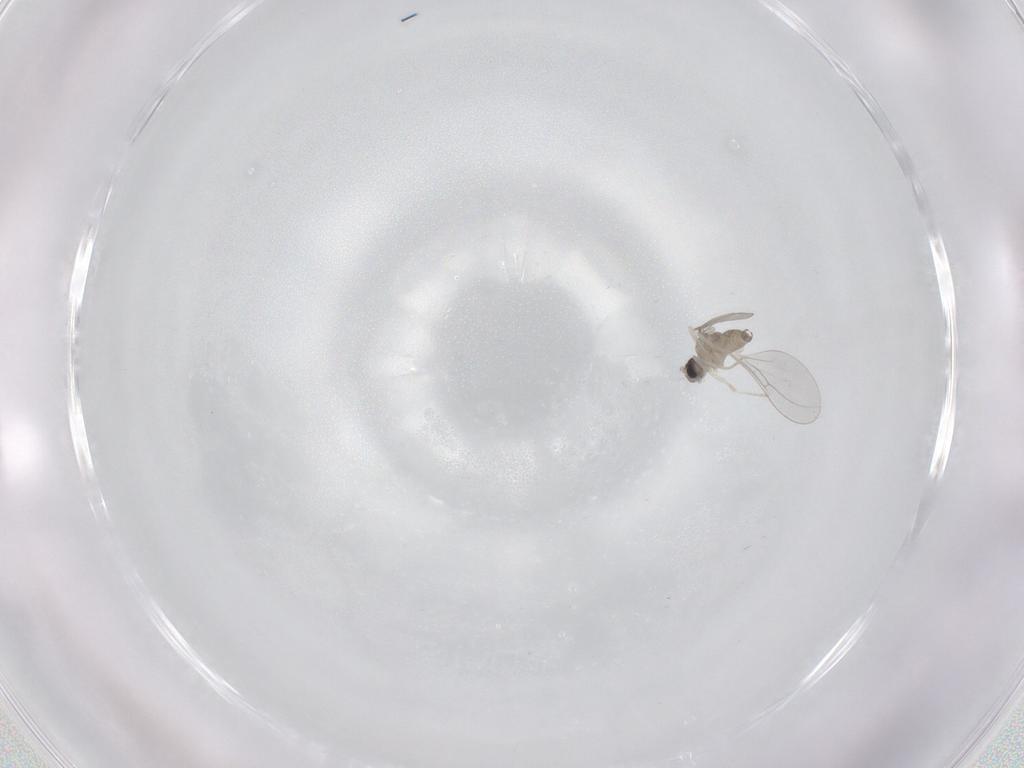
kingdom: Animalia
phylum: Arthropoda
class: Insecta
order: Diptera
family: Cecidomyiidae
